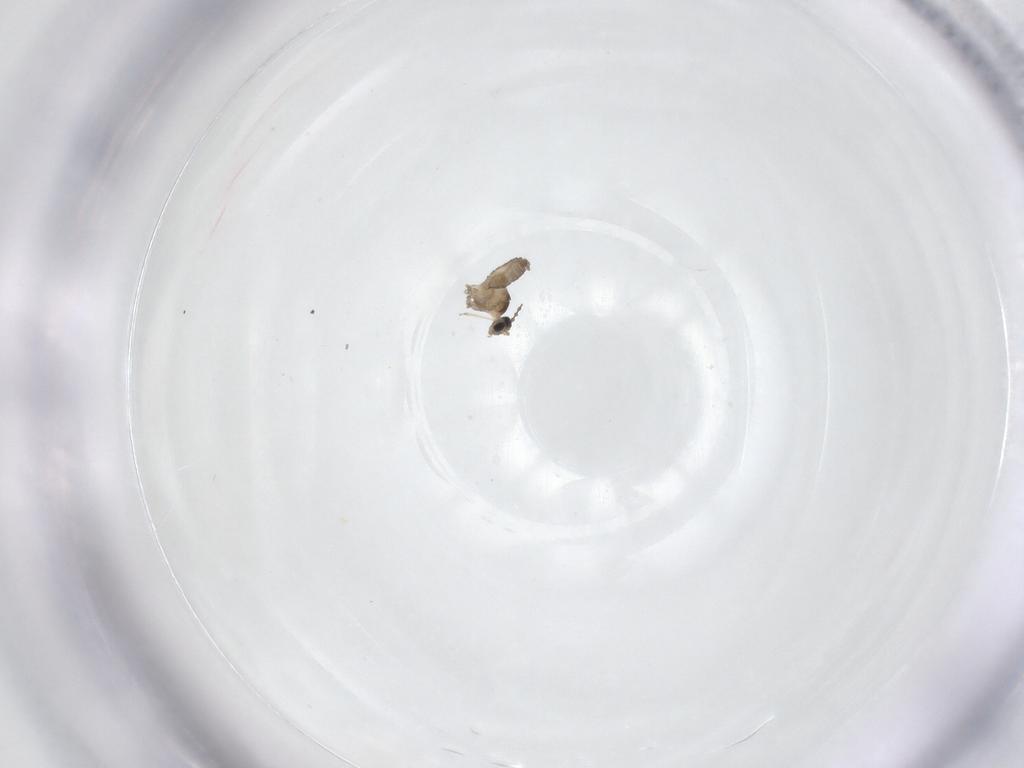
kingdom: Animalia
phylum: Arthropoda
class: Insecta
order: Diptera
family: Cecidomyiidae
